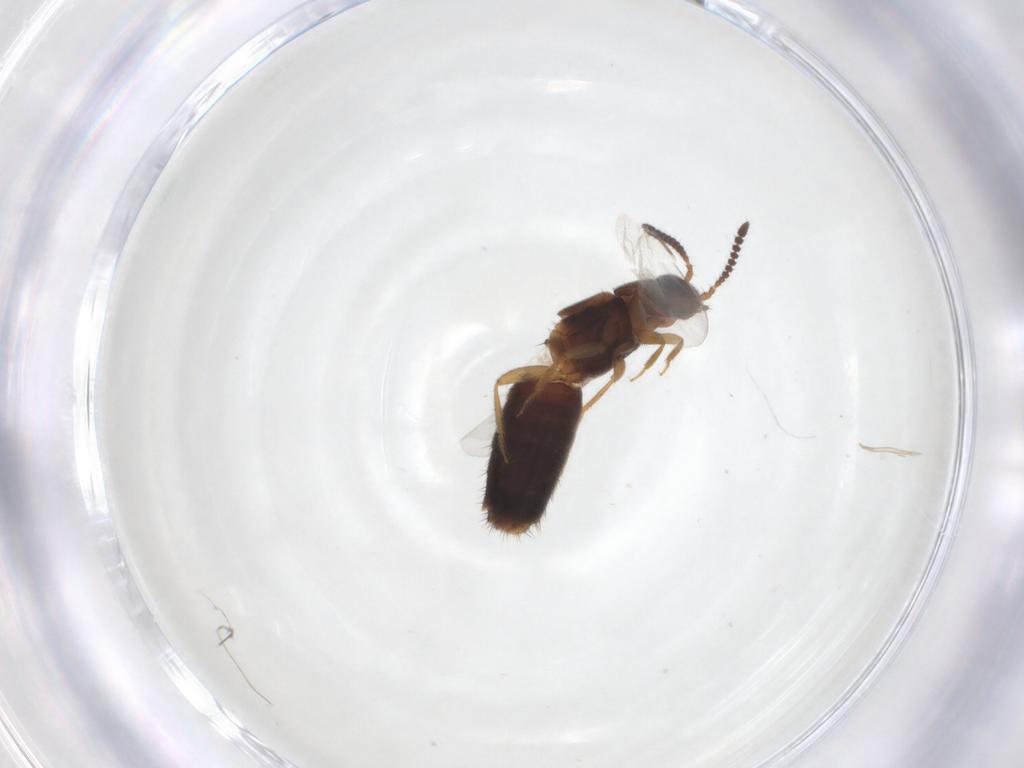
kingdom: Animalia
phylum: Arthropoda
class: Insecta
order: Coleoptera
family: Staphylinidae
